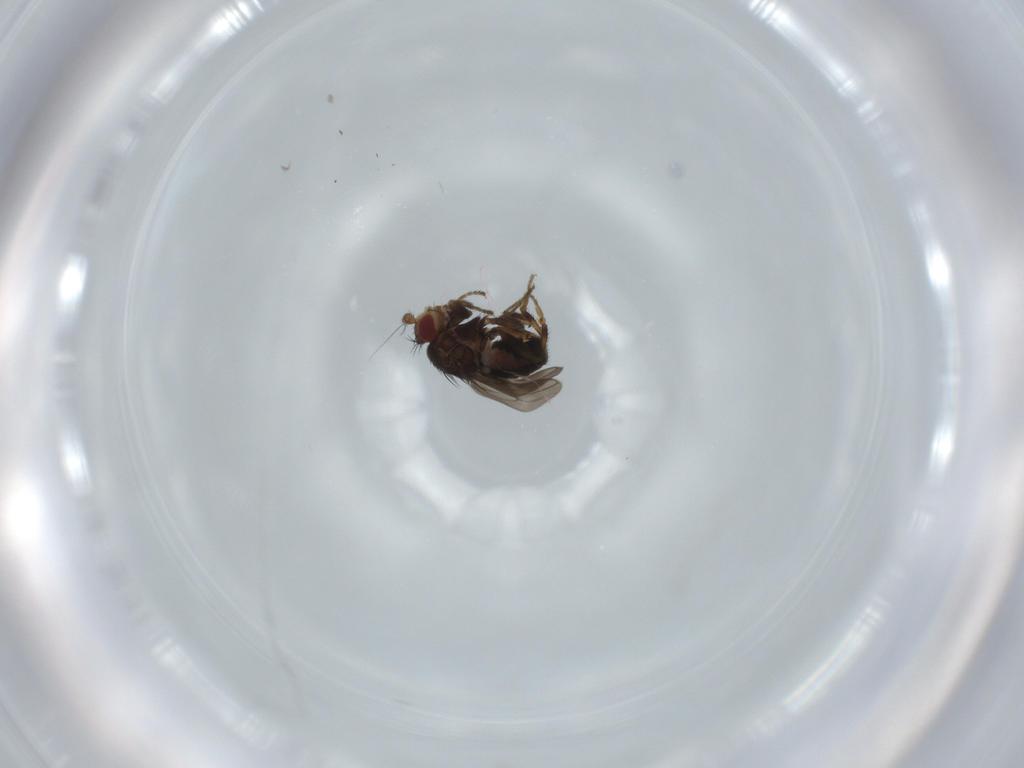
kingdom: Animalia
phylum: Arthropoda
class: Insecta
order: Diptera
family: Sphaeroceridae
